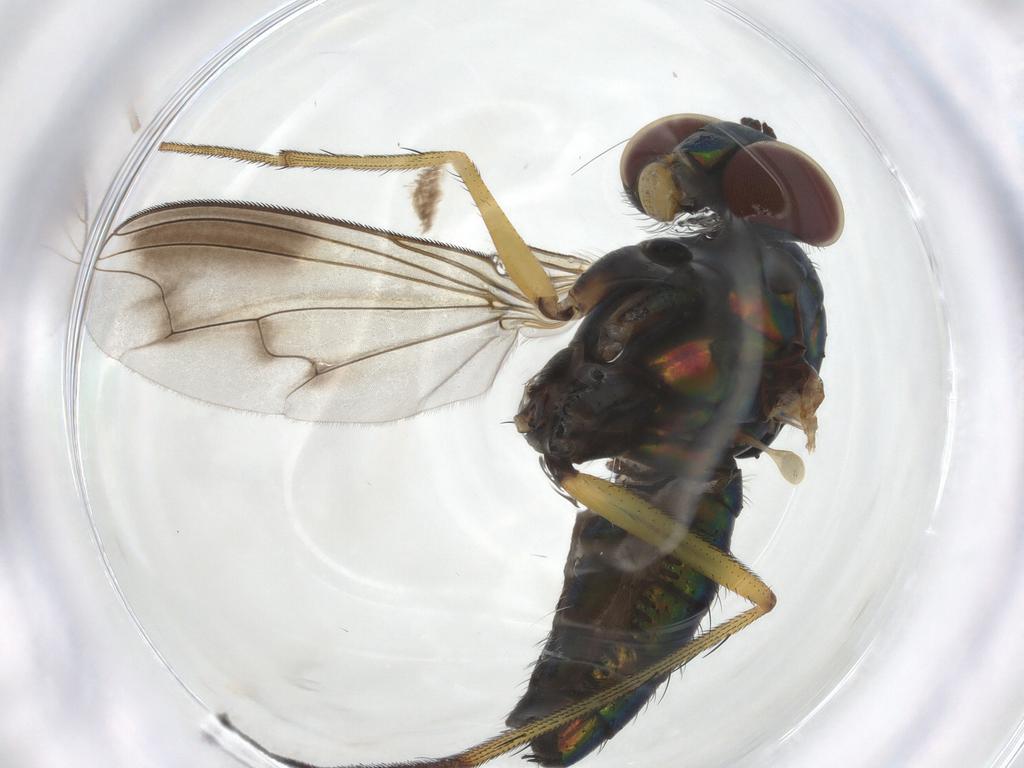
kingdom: Animalia
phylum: Arthropoda
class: Insecta
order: Diptera
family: Dolichopodidae
